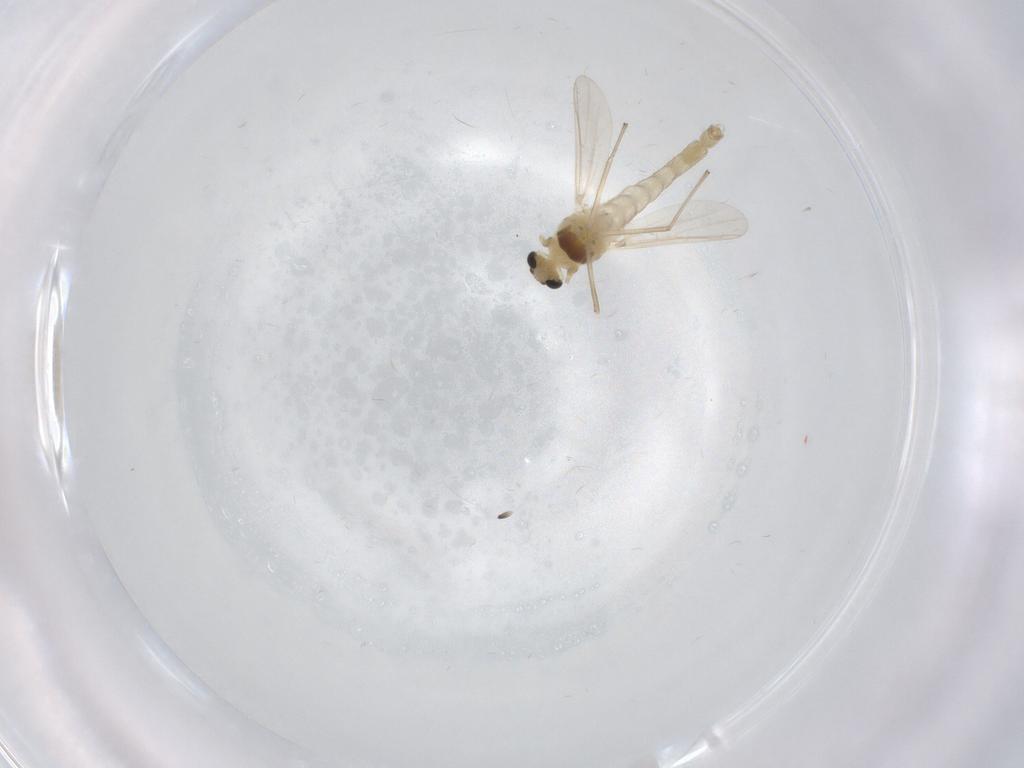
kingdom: Animalia
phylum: Arthropoda
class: Insecta
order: Diptera
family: Chironomidae
